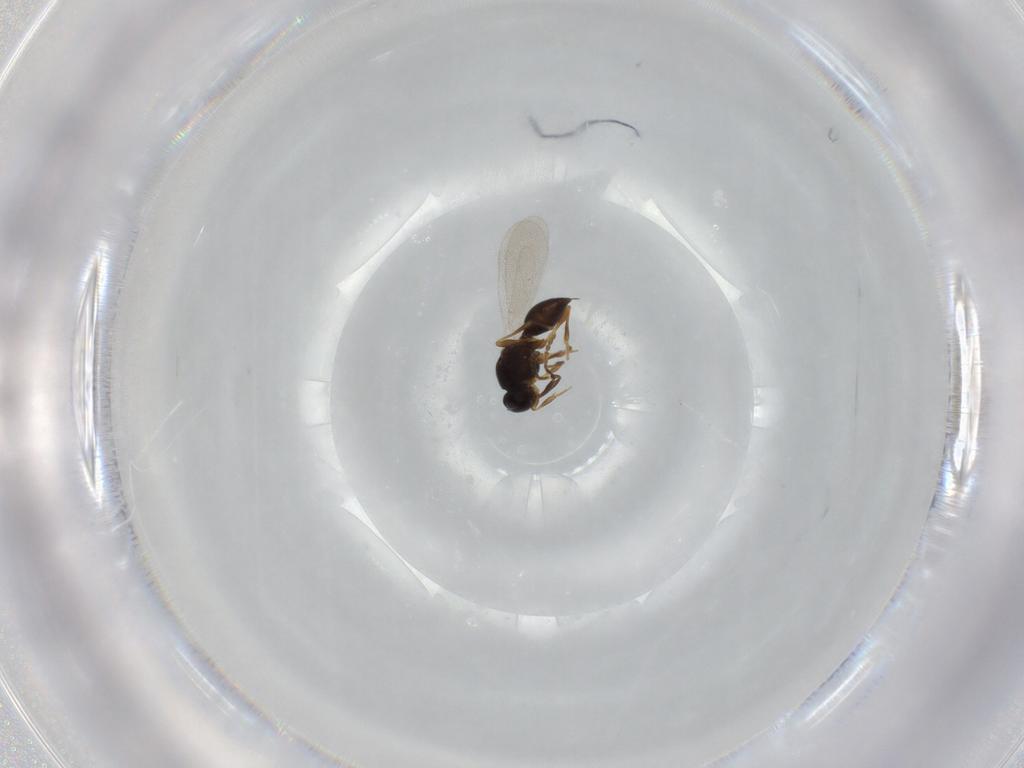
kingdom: Animalia
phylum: Arthropoda
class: Insecta
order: Diptera
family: Mythicomyiidae
